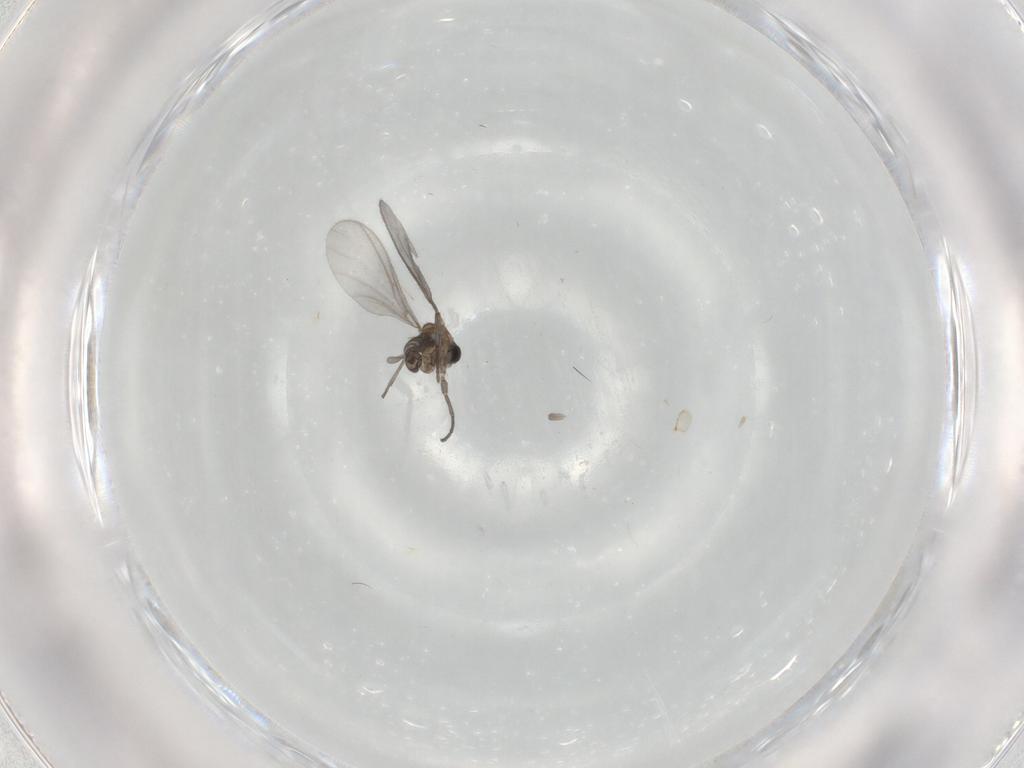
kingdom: Animalia
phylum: Arthropoda
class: Insecta
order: Diptera
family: Sciaridae
